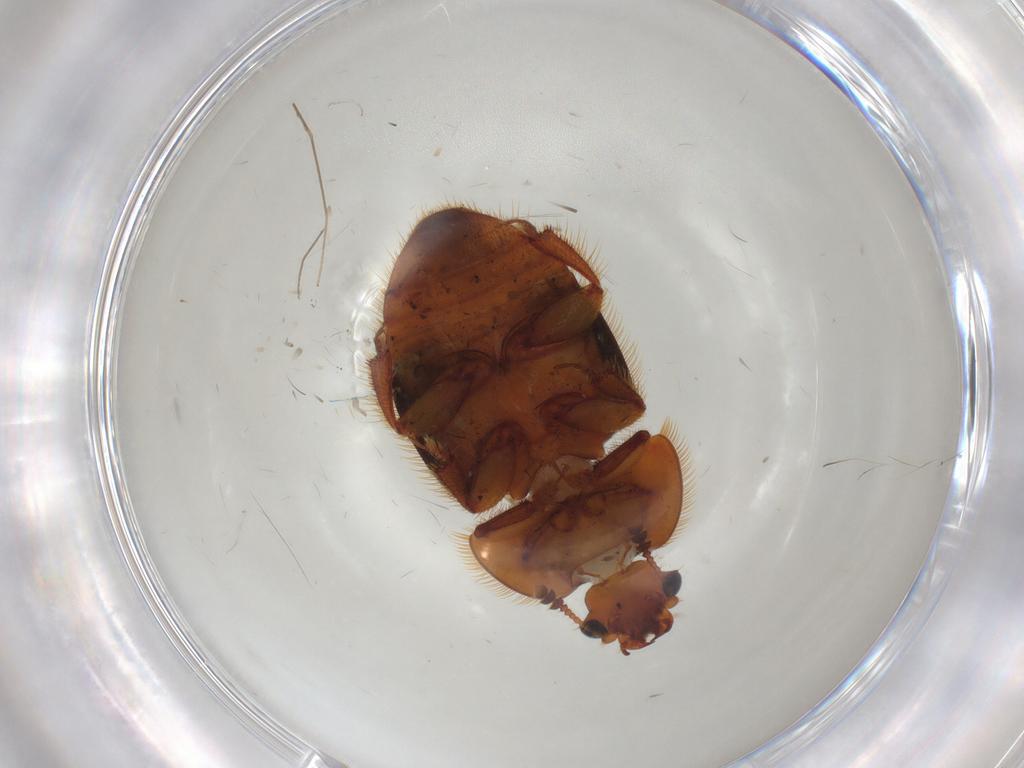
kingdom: Animalia
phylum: Arthropoda
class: Insecta
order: Coleoptera
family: Nitidulidae
